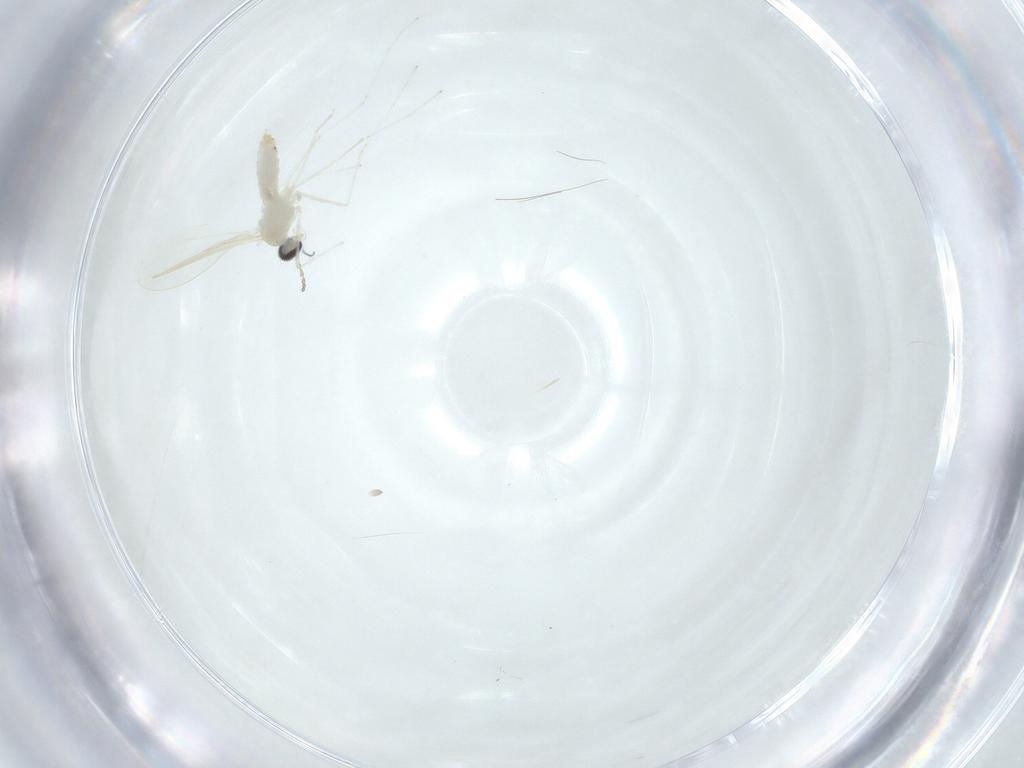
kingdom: Animalia
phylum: Arthropoda
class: Insecta
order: Diptera
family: Cecidomyiidae
